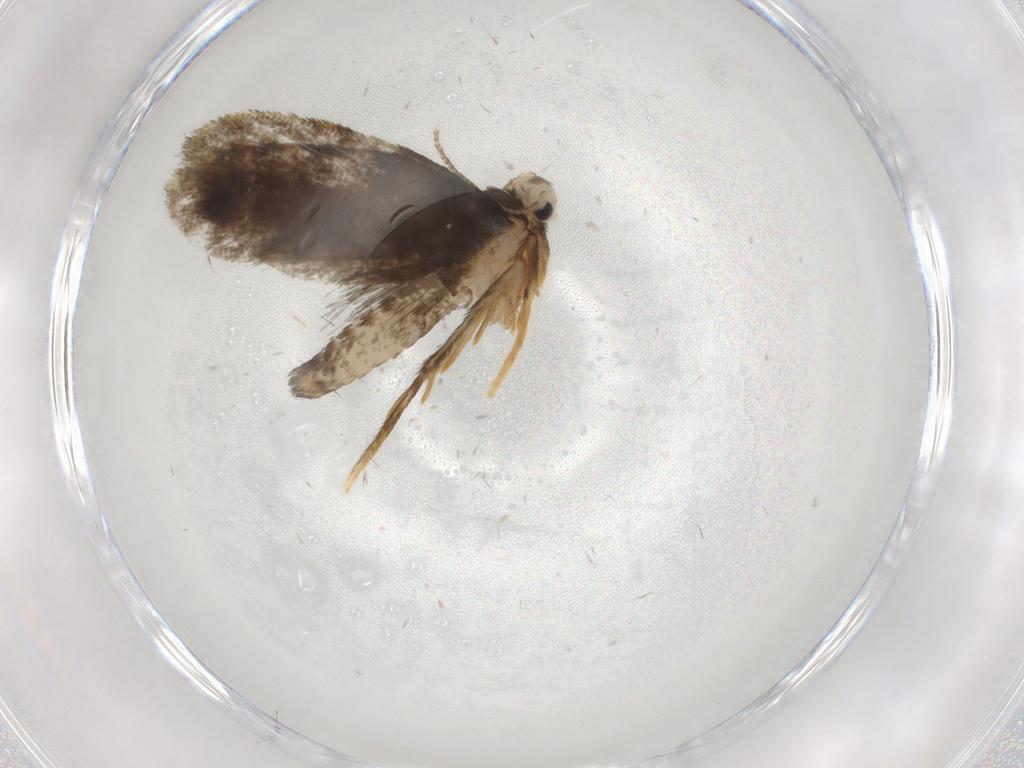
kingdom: Animalia
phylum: Arthropoda
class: Insecta
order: Lepidoptera
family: Psychidae
